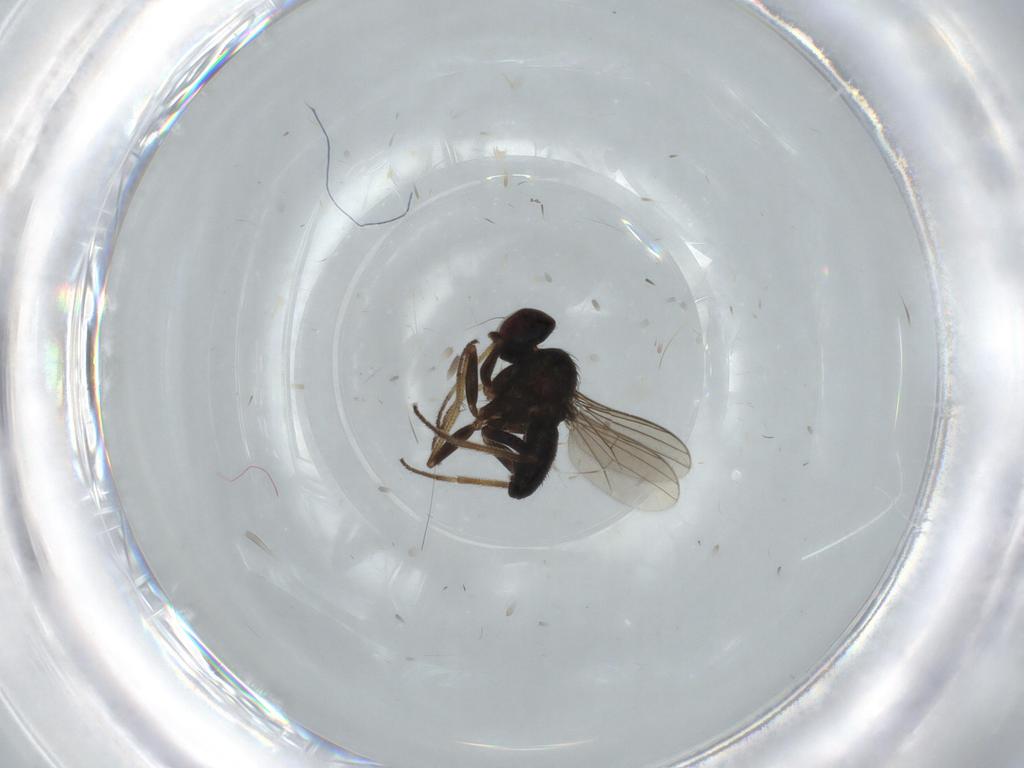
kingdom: Animalia
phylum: Arthropoda
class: Insecta
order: Diptera
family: Dolichopodidae
